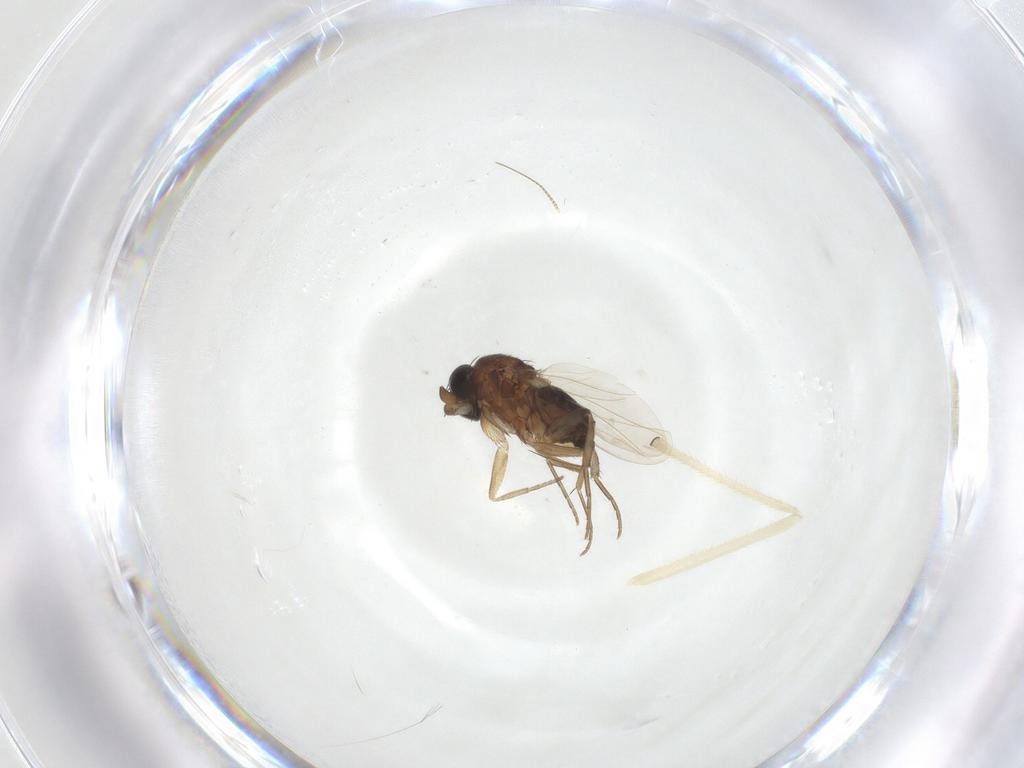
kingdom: Animalia
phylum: Arthropoda
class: Insecta
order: Diptera
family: Phoridae
